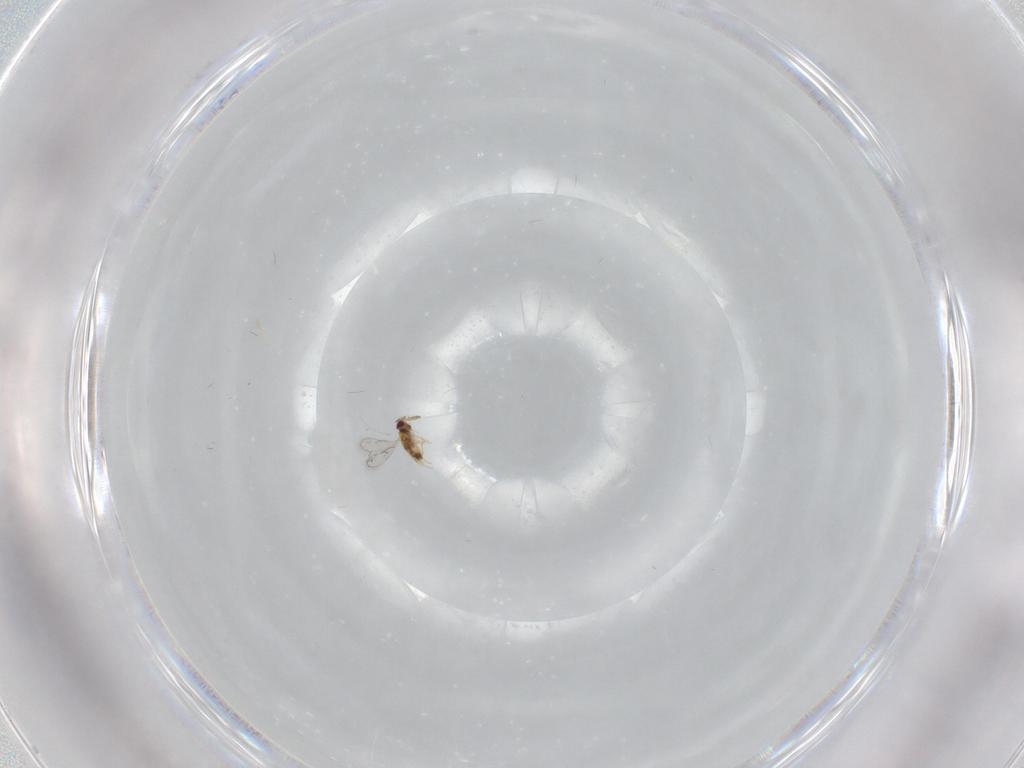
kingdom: Animalia
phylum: Arthropoda
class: Insecta
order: Hymenoptera
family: Aphelinidae
